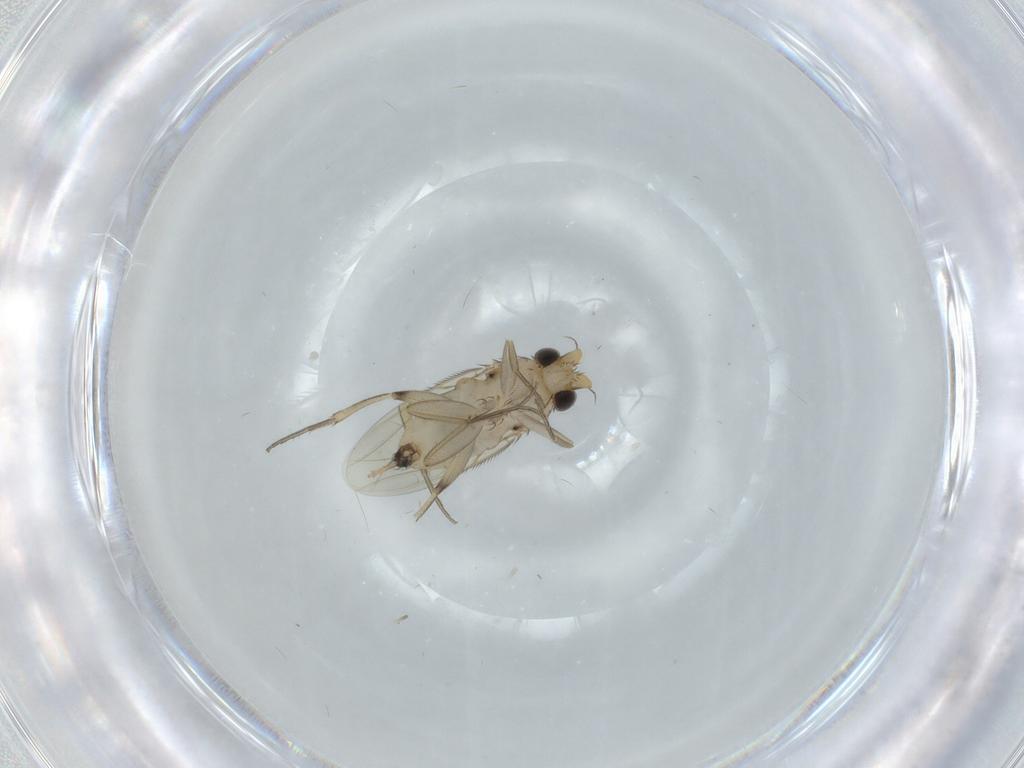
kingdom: Animalia
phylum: Arthropoda
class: Insecta
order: Diptera
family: Phoridae
